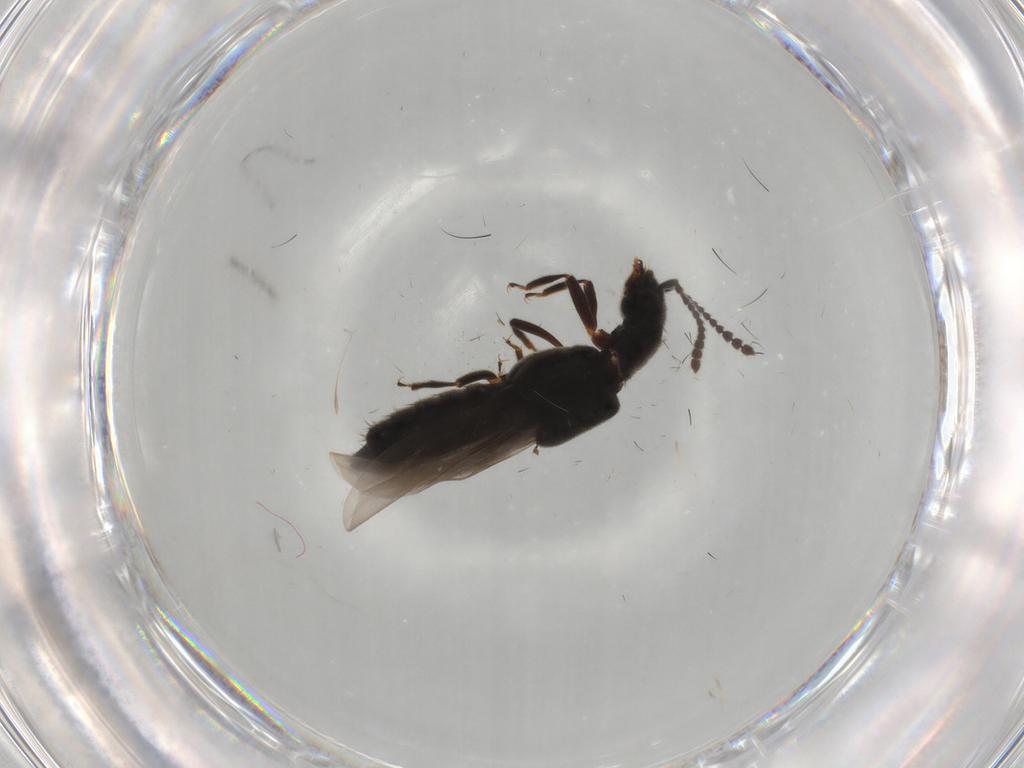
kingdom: Animalia
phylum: Arthropoda
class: Insecta
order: Coleoptera
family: Staphylinidae
